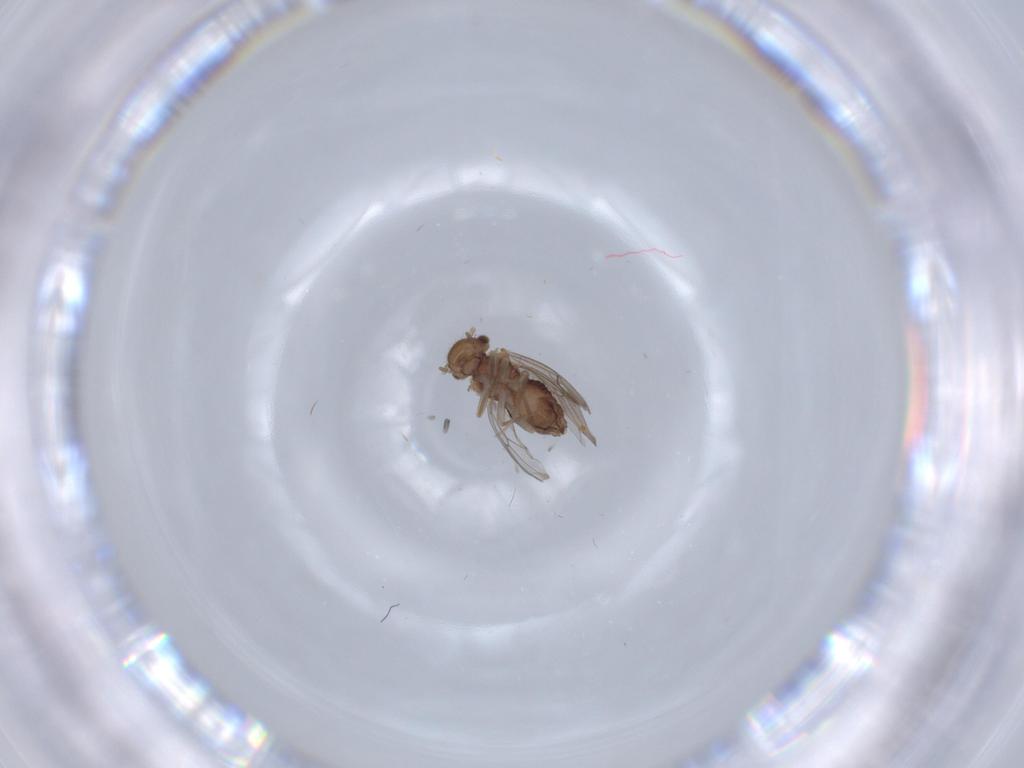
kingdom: Animalia
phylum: Arthropoda
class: Insecta
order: Psocodea
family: Ectopsocidae
